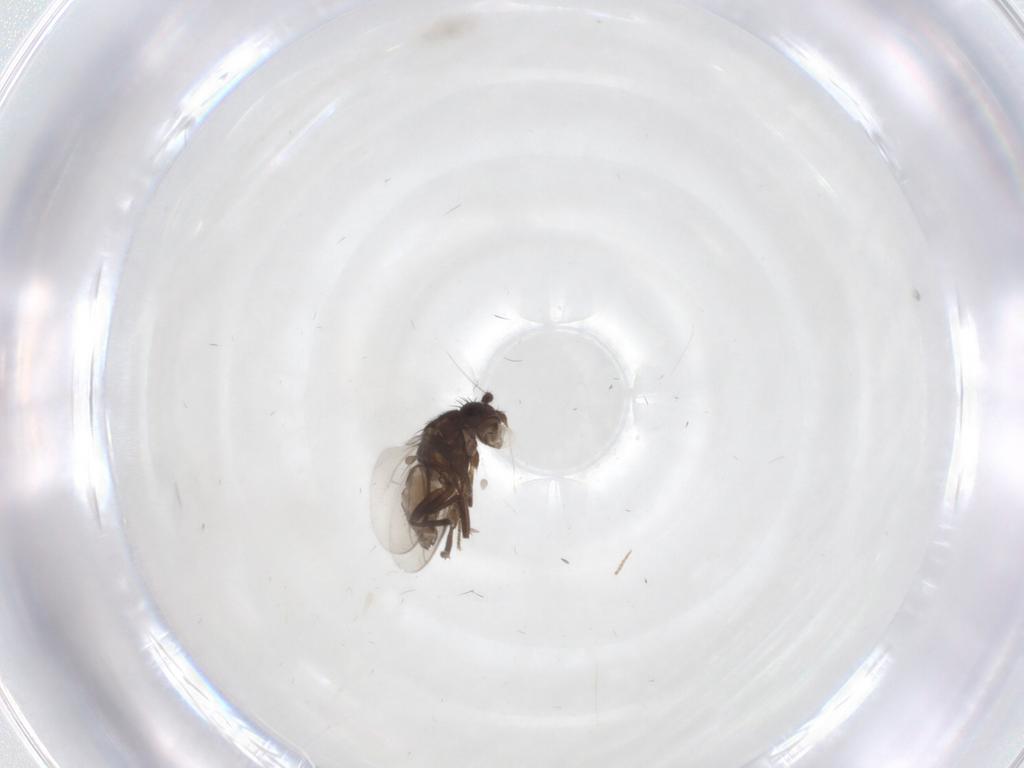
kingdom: Animalia
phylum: Arthropoda
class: Insecta
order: Diptera
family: Sphaeroceridae
